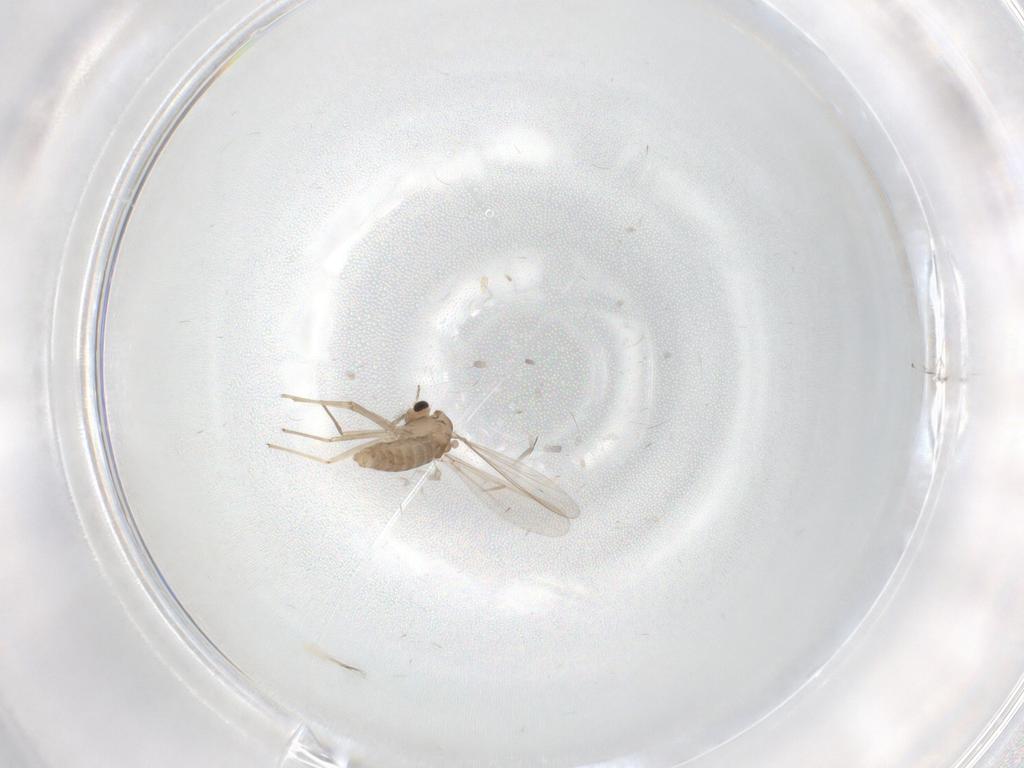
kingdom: Animalia
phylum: Arthropoda
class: Insecta
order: Diptera
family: Chironomidae
